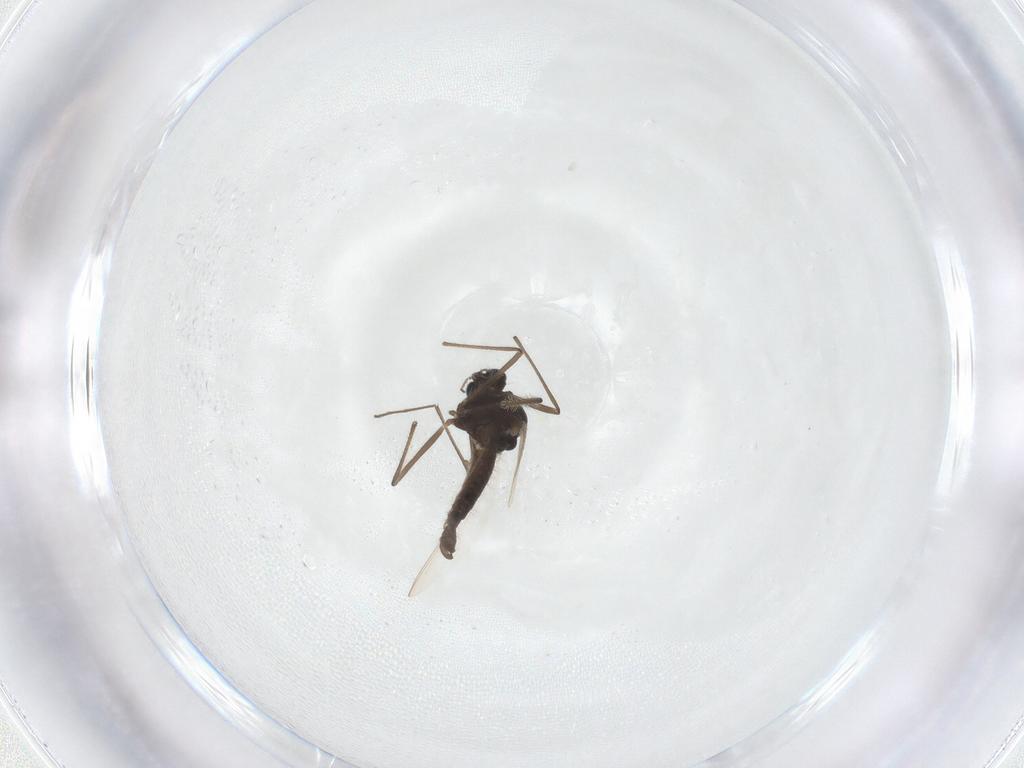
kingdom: Animalia
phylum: Arthropoda
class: Insecta
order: Diptera
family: Chironomidae
